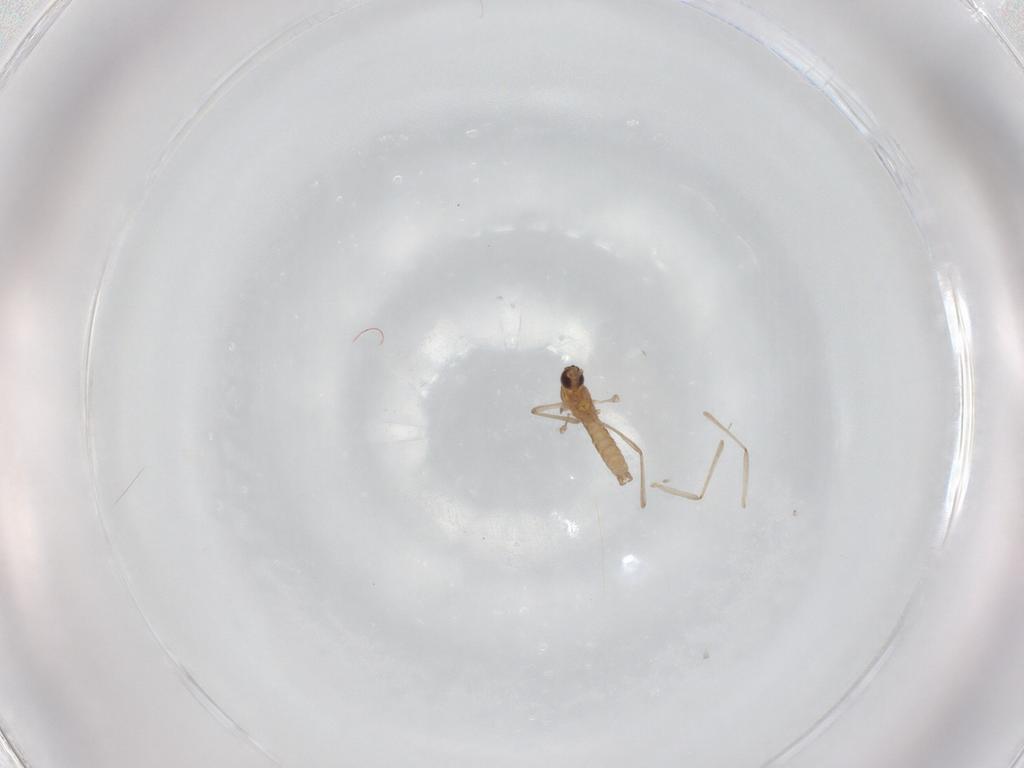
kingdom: Animalia
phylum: Arthropoda
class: Insecta
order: Diptera
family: Cecidomyiidae
